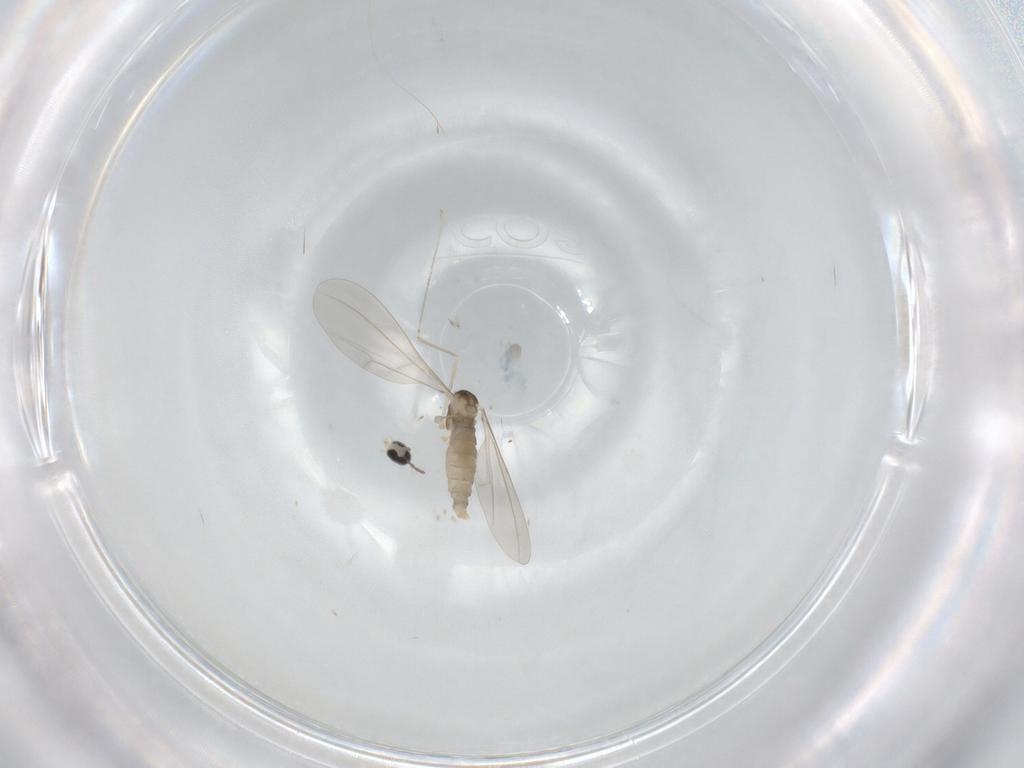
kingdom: Animalia
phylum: Arthropoda
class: Insecta
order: Diptera
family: Cecidomyiidae
